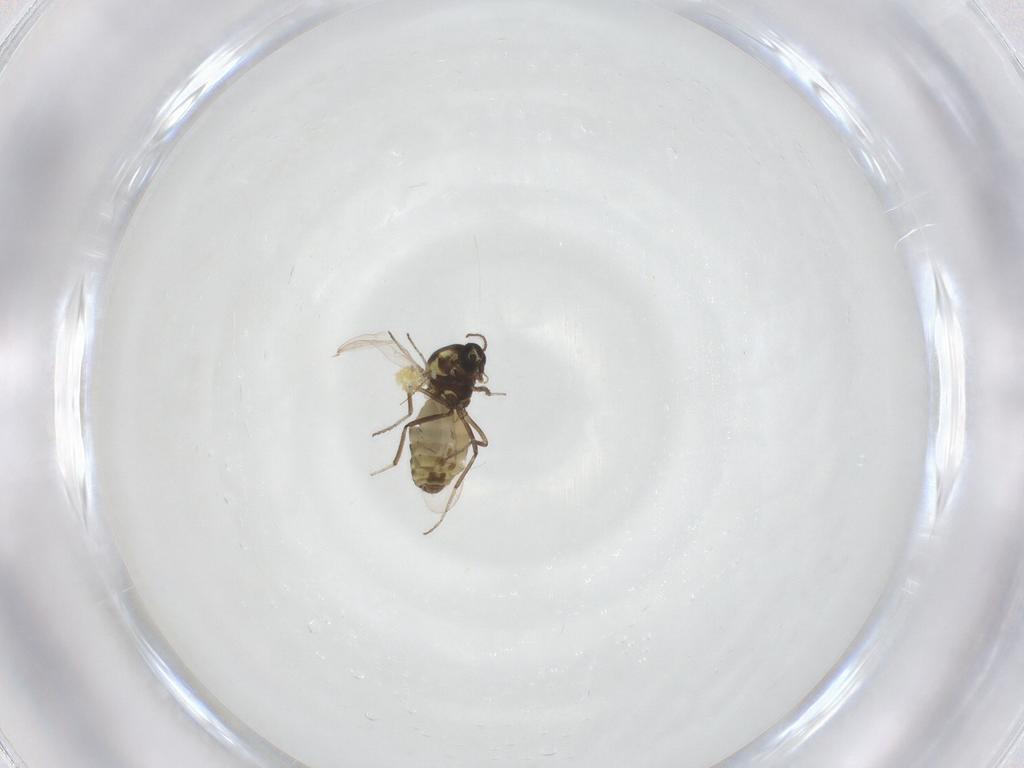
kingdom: Animalia
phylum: Arthropoda
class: Insecta
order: Diptera
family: Ceratopogonidae
